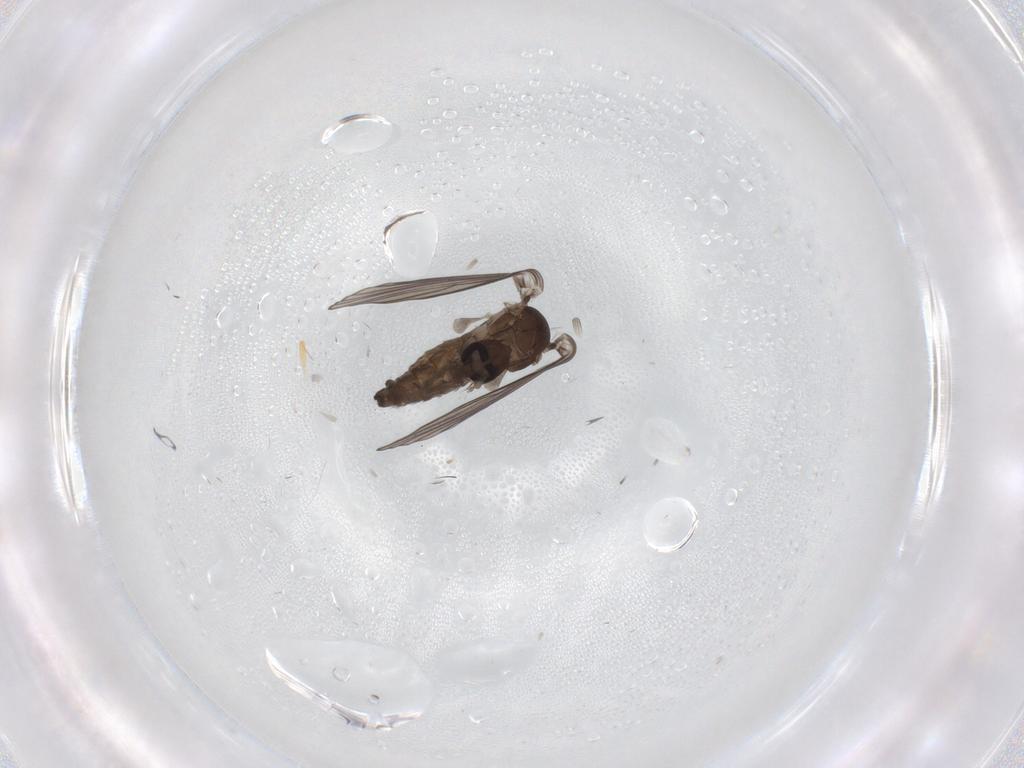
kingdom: Animalia
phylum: Arthropoda
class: Insecta
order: Diptera
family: Psychodidae
